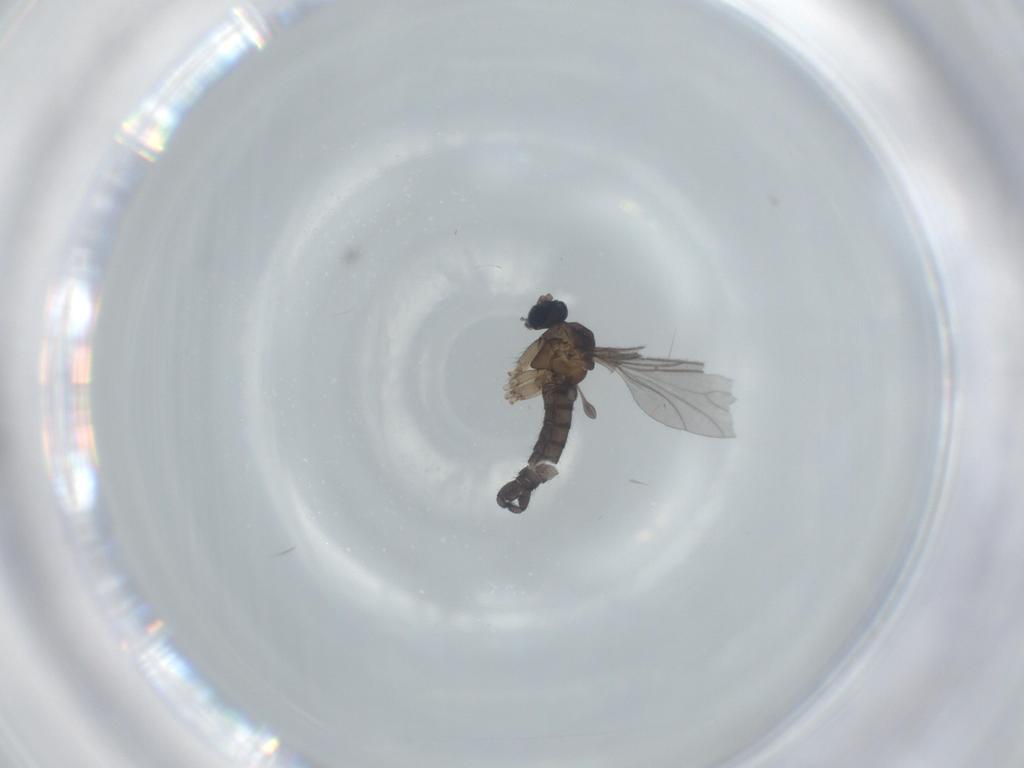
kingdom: Animalia
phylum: Arthropoda
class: Insecta
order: Diptera
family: Sciaridae
